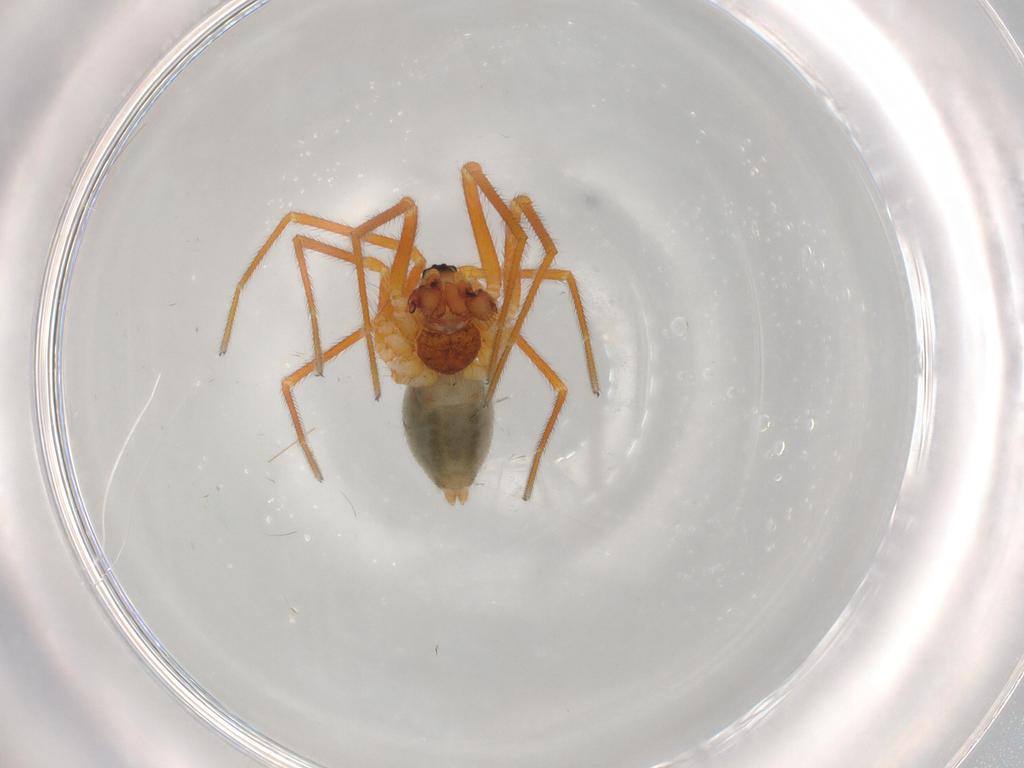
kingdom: Animalia
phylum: Arthropoda
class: Arachnida
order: Araneae
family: Linyphiidae
